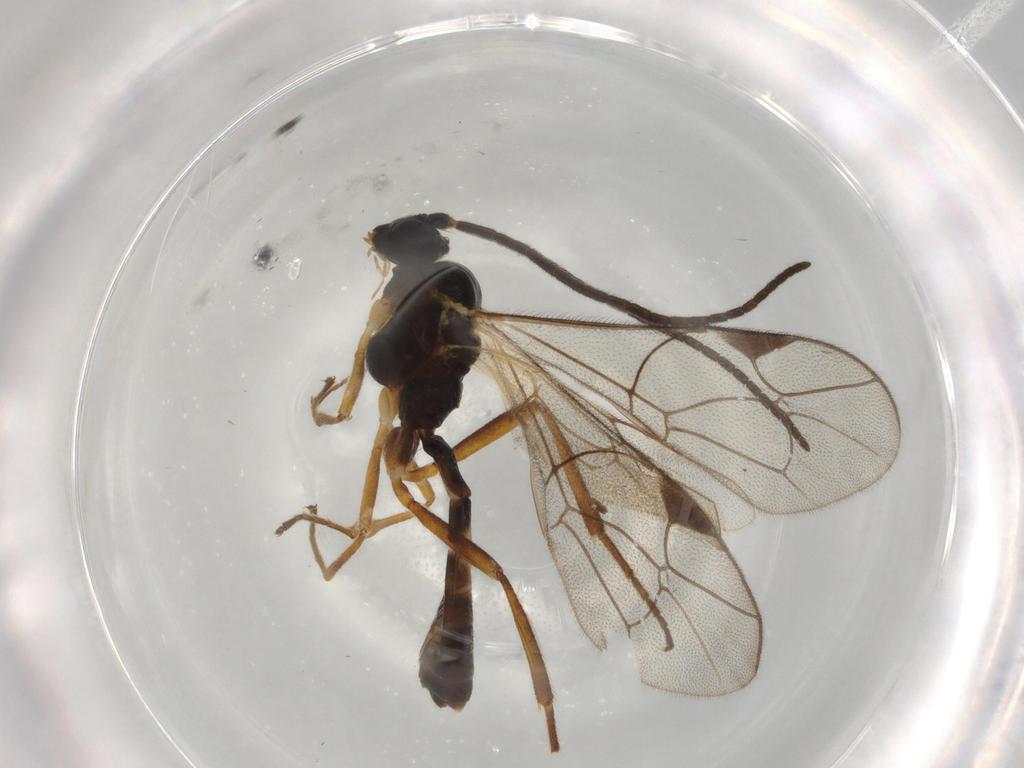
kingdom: Animalia
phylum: Arthropoda
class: Insecta
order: Hymenoptera
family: Ichneumonidae
